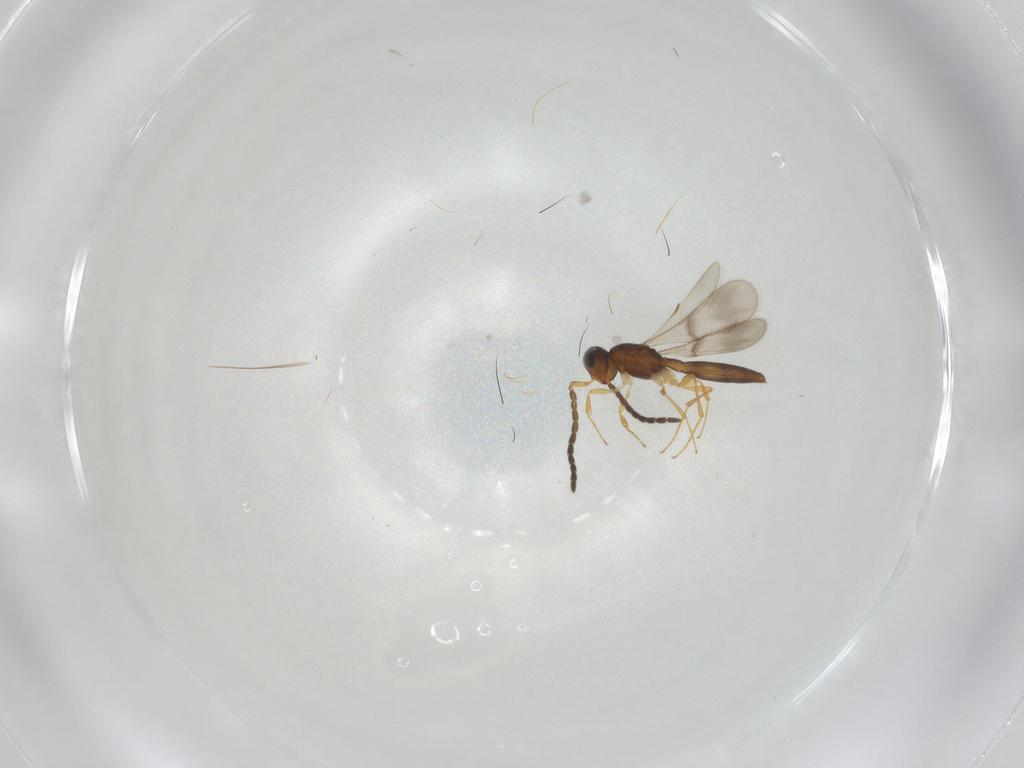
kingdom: Animalia
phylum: Arthropoda
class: Insecta
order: Hymenoptera
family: Scelionidae
